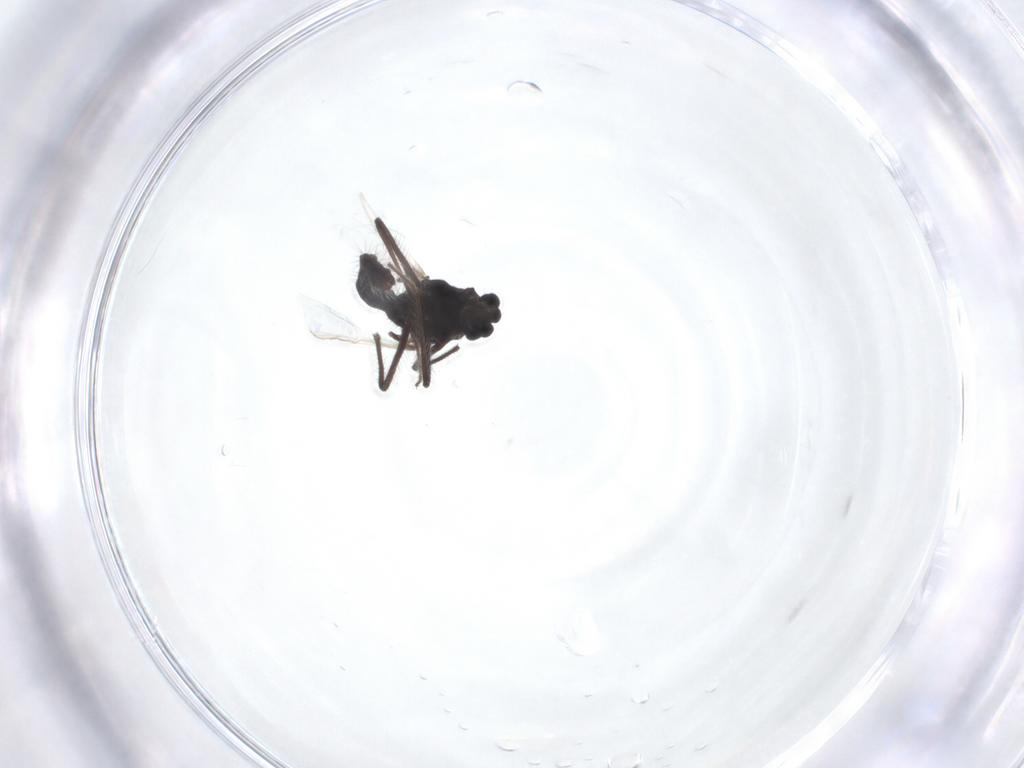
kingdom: Animalia
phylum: Arthropoda
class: Insecta
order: Diptera
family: Chironomidae
